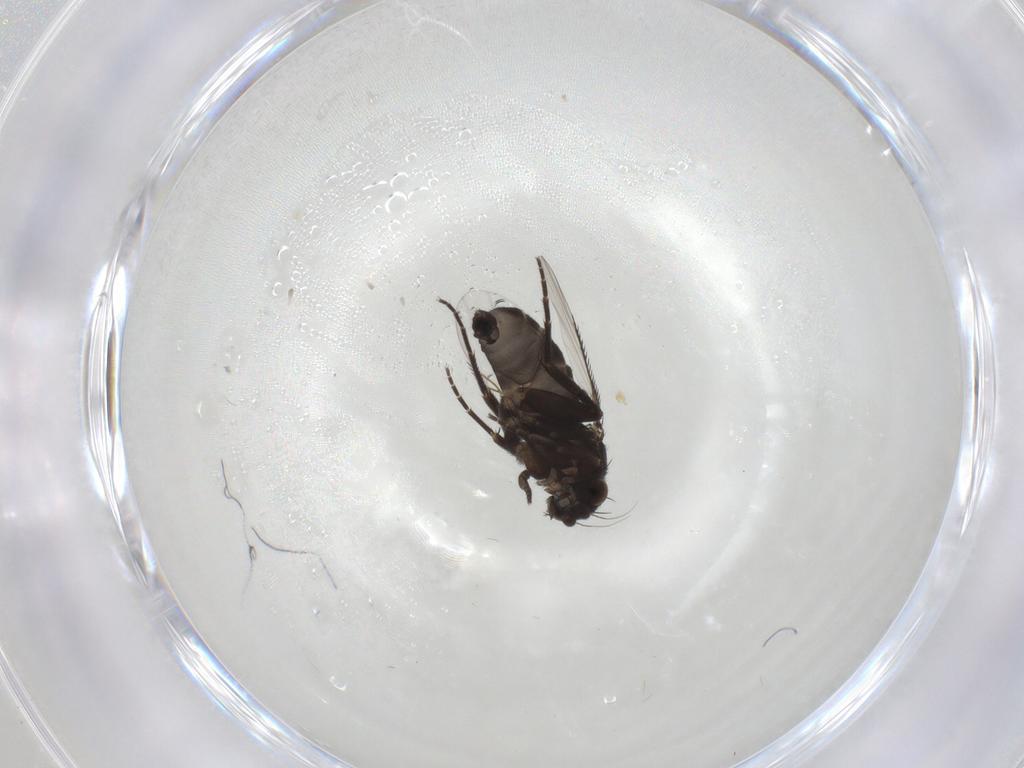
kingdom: Animalia
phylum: Arthropoda
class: Insecta
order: Diptera
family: Phoridae
